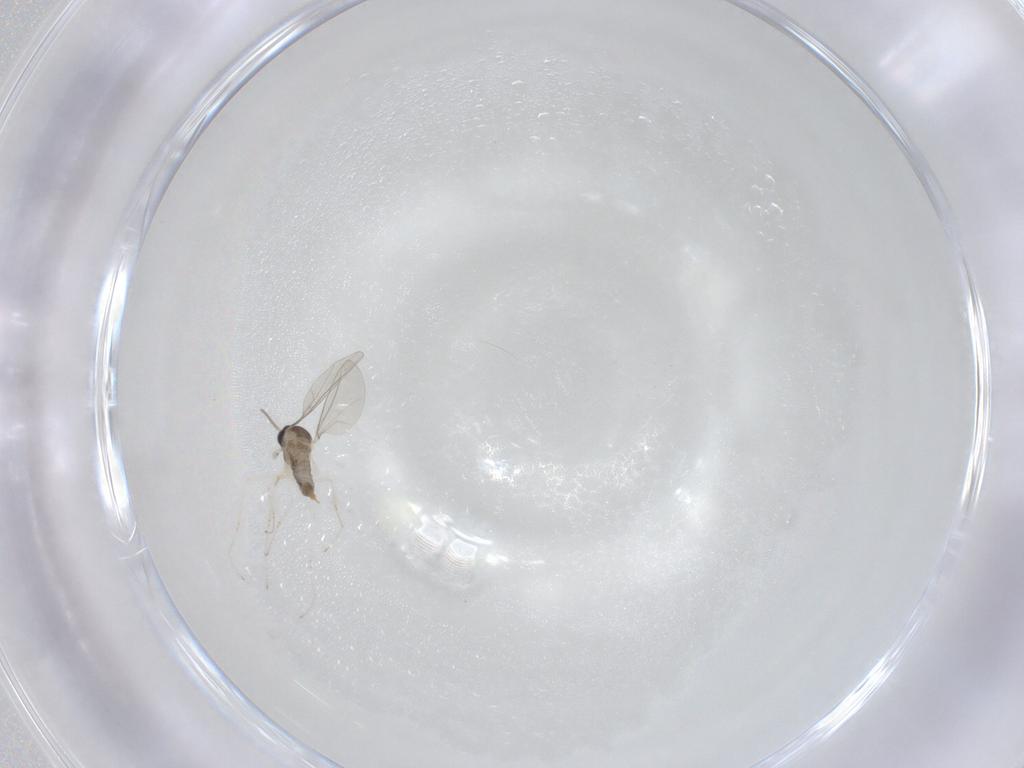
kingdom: Animalia
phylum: Arthropoda
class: Insecta
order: Diptera
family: Cecidomyiidae
